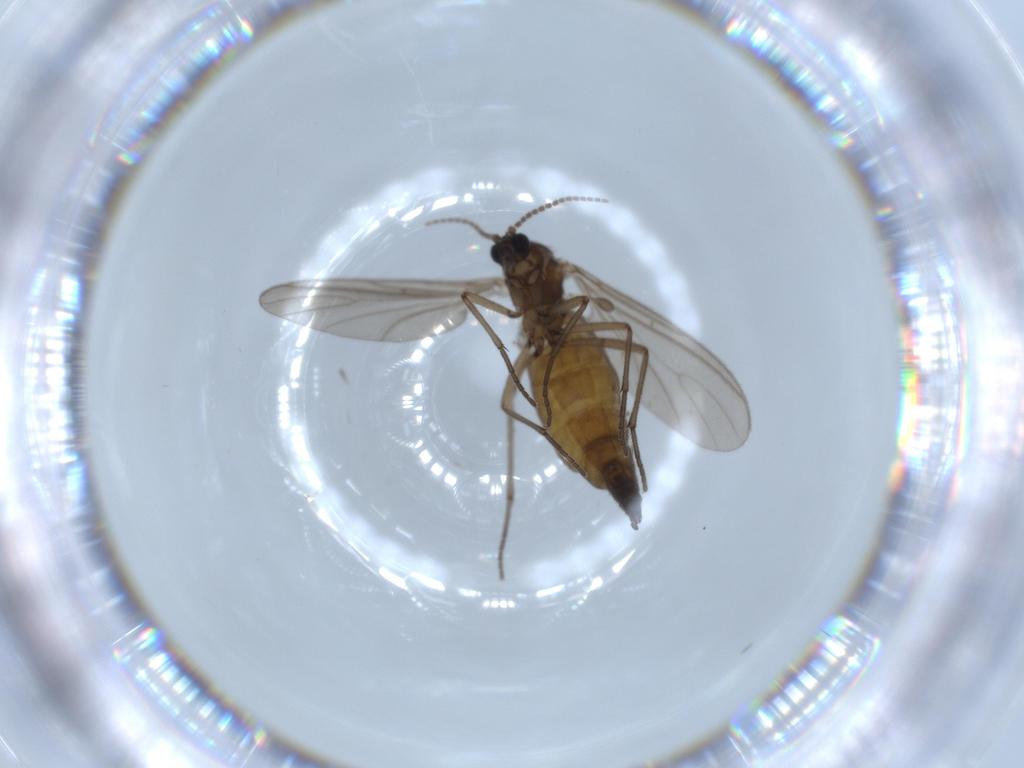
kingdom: Animalia
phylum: Arthropoda
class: Insecta
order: Diptera
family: Sciaridae
